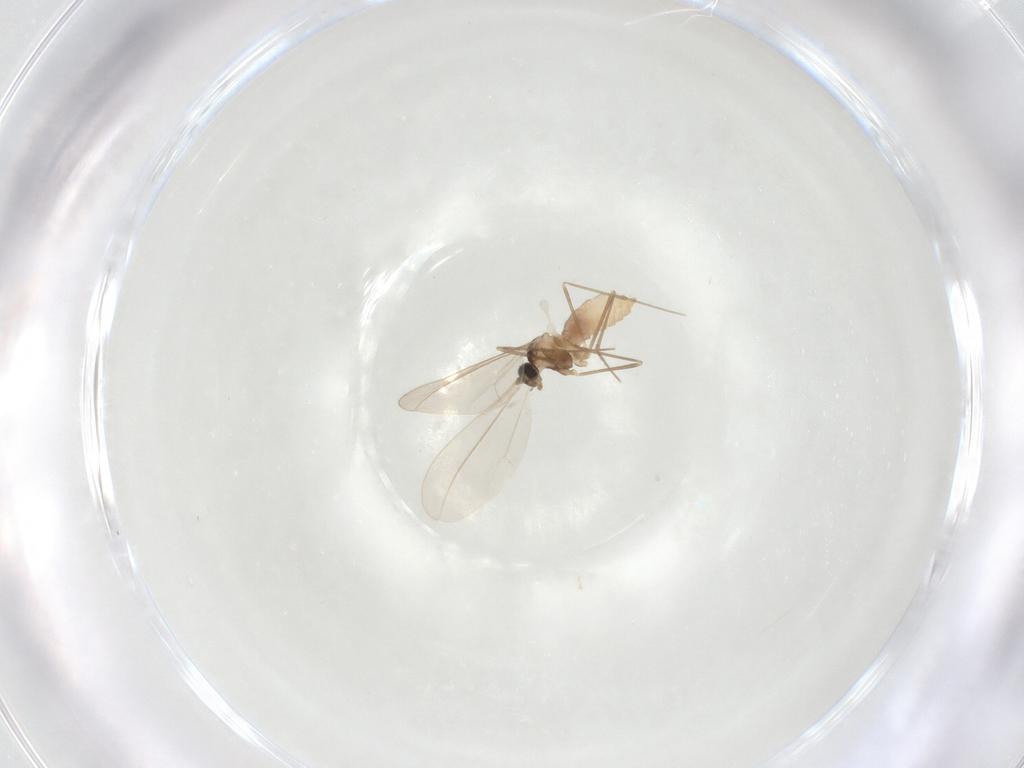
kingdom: Animalia
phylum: Arthropoda
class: Insecta
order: Diptera
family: Cecidomyiidae
